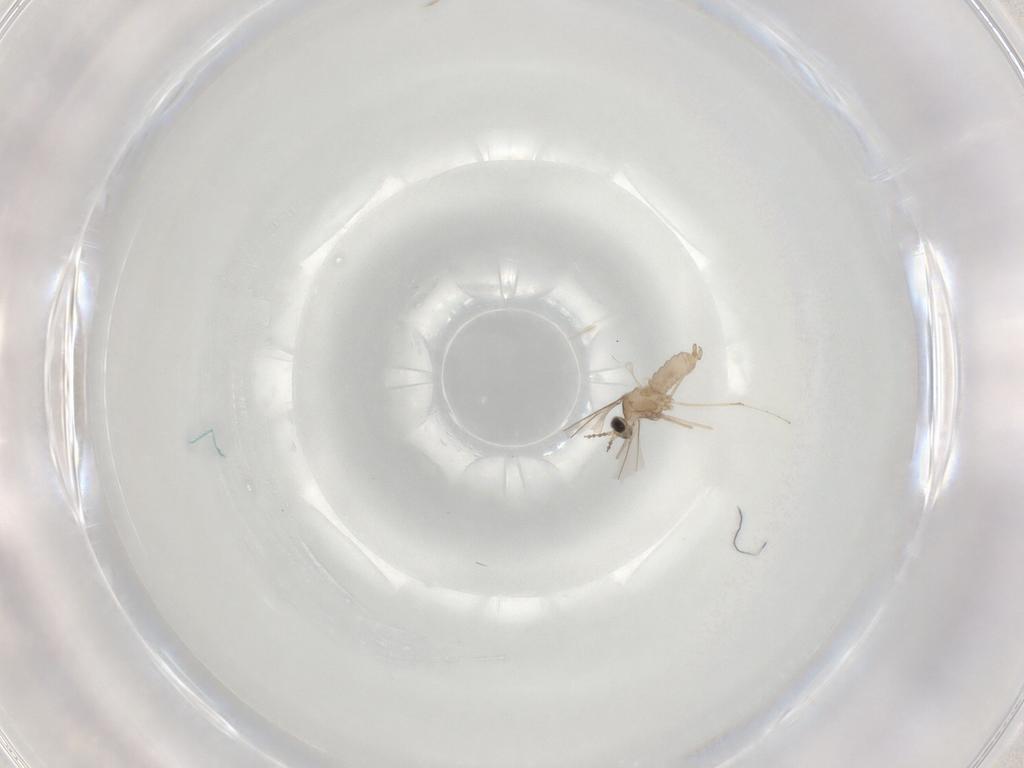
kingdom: Animalia
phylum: Arthropoda
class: Insecta
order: Diptera
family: Cecidomyiidae
